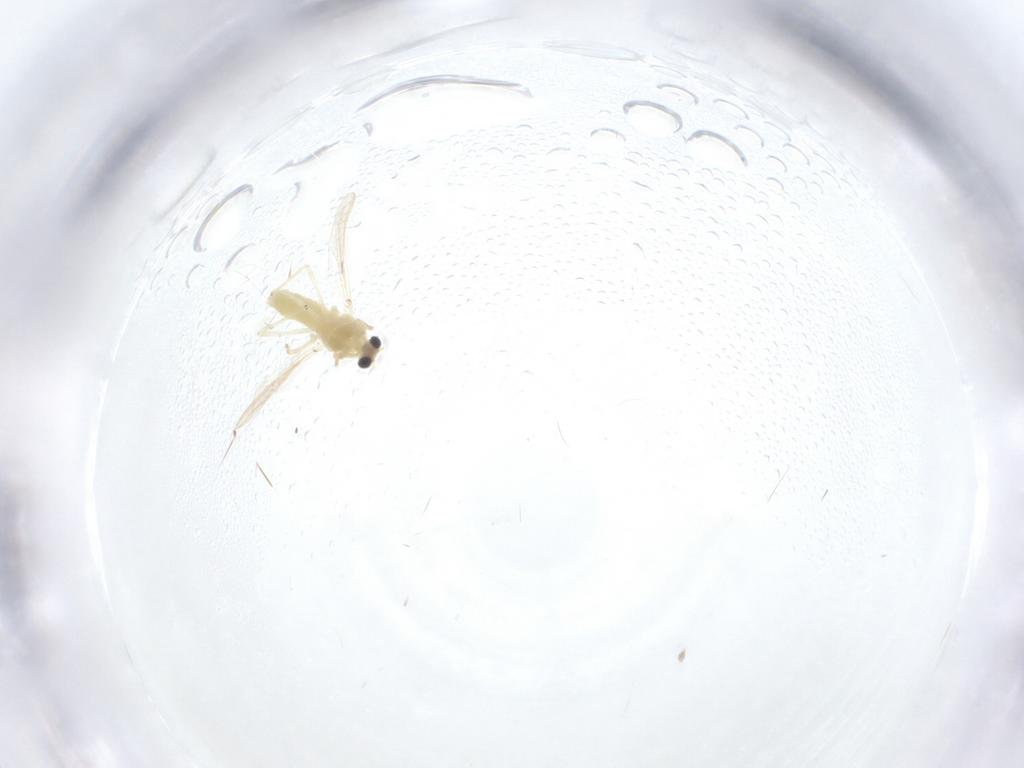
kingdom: Animalia
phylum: Arthropoda
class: Insecta
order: Diptera
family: Chironomidae
